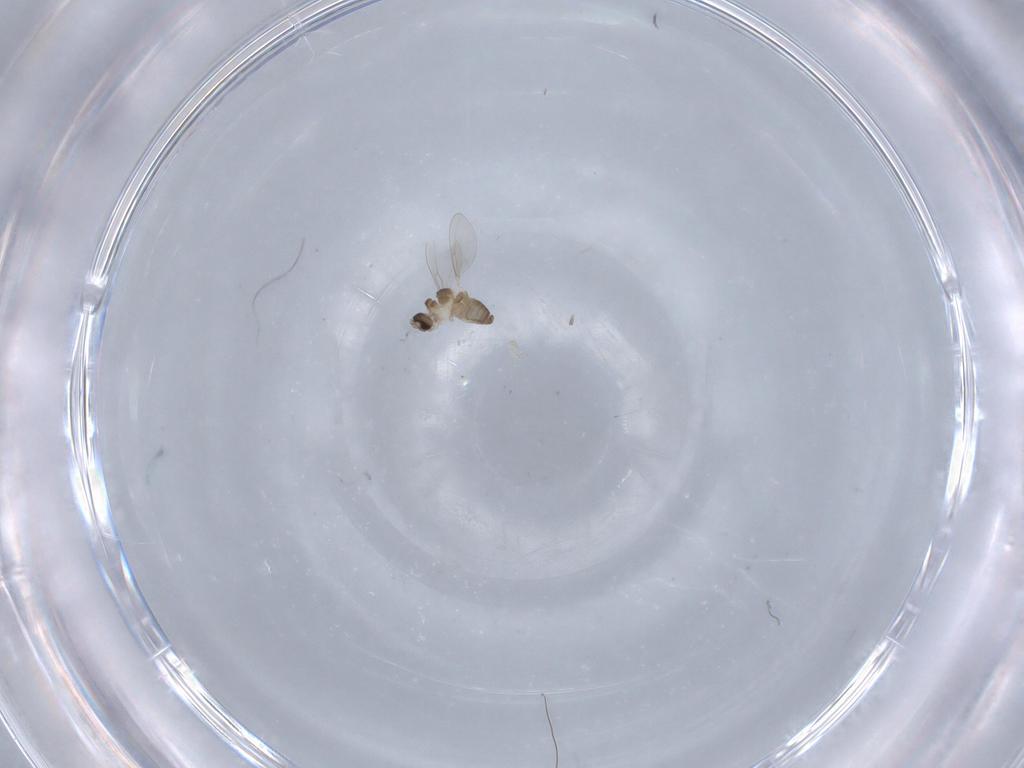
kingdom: Animalia
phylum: Arthropoda
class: Insecta
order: Diptera
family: Cecidomyiidae
